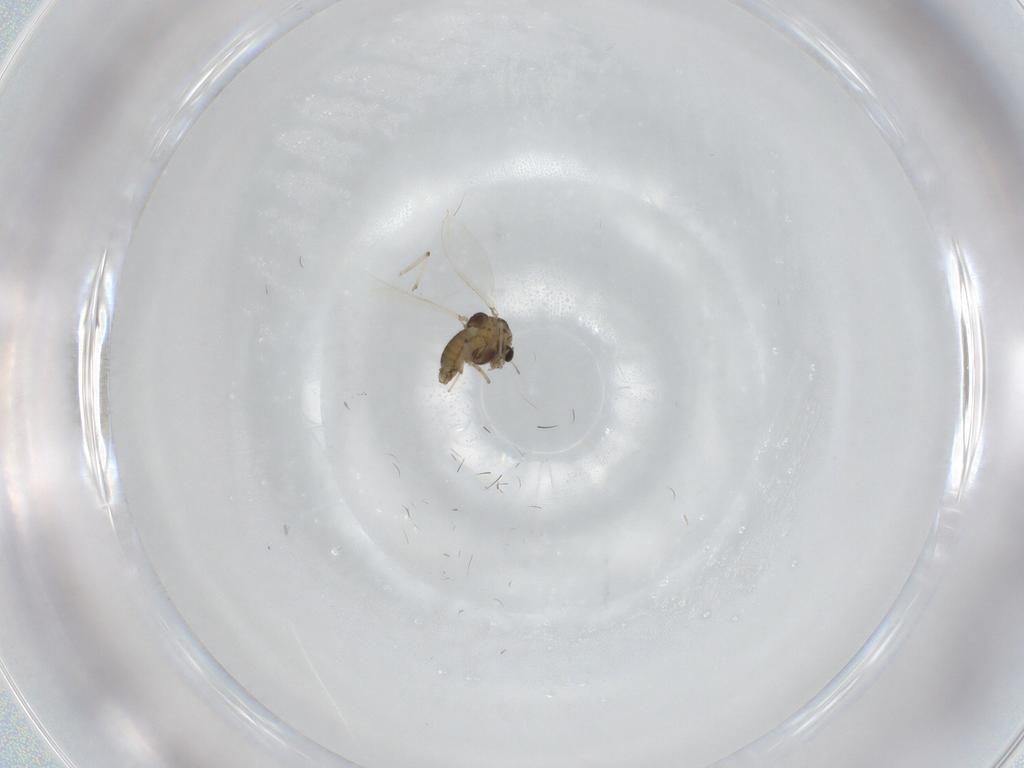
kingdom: Animalia
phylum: Arthropoda
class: Insecta
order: Diptera
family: Chironomidae
